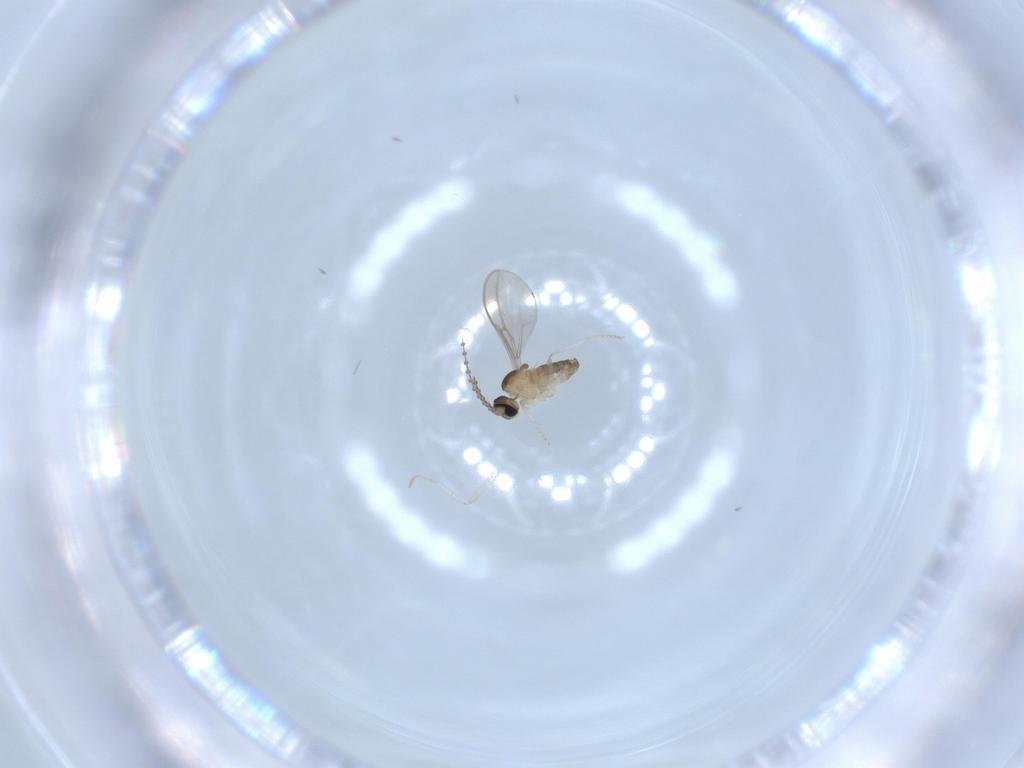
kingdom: Animalia
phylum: Arthropoda
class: Insecta
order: Diptera
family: Cecidomyiidae
